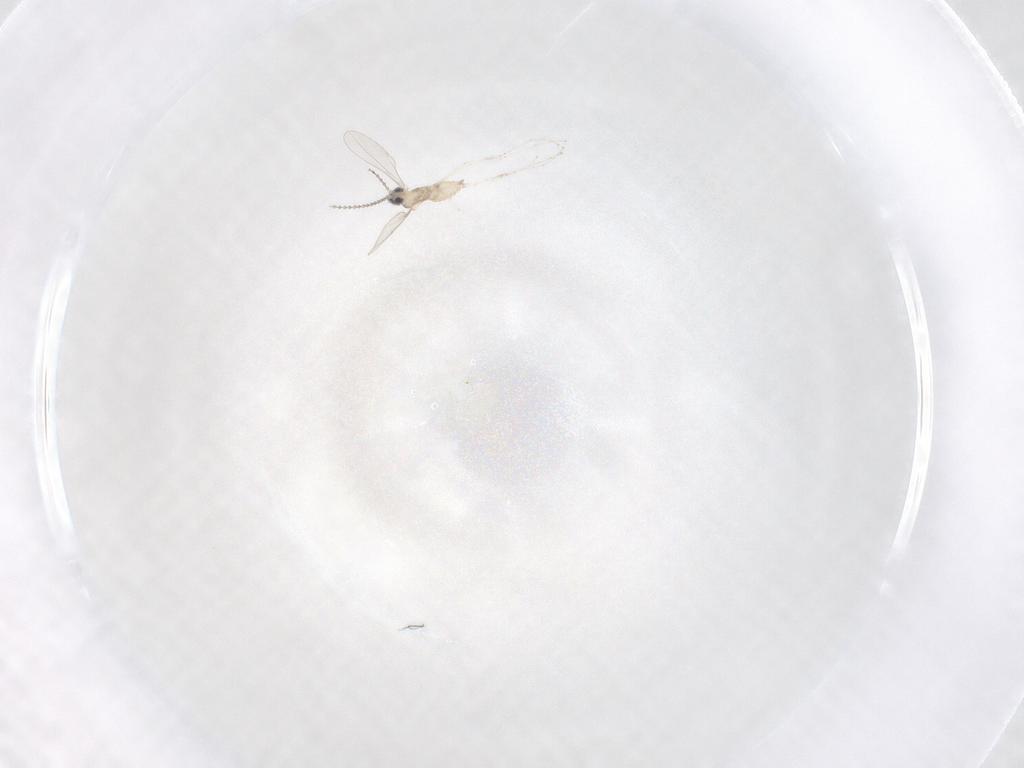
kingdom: Animalia
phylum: Arthropoda
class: Insecta
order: Diptera
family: Cecidomyiidae
